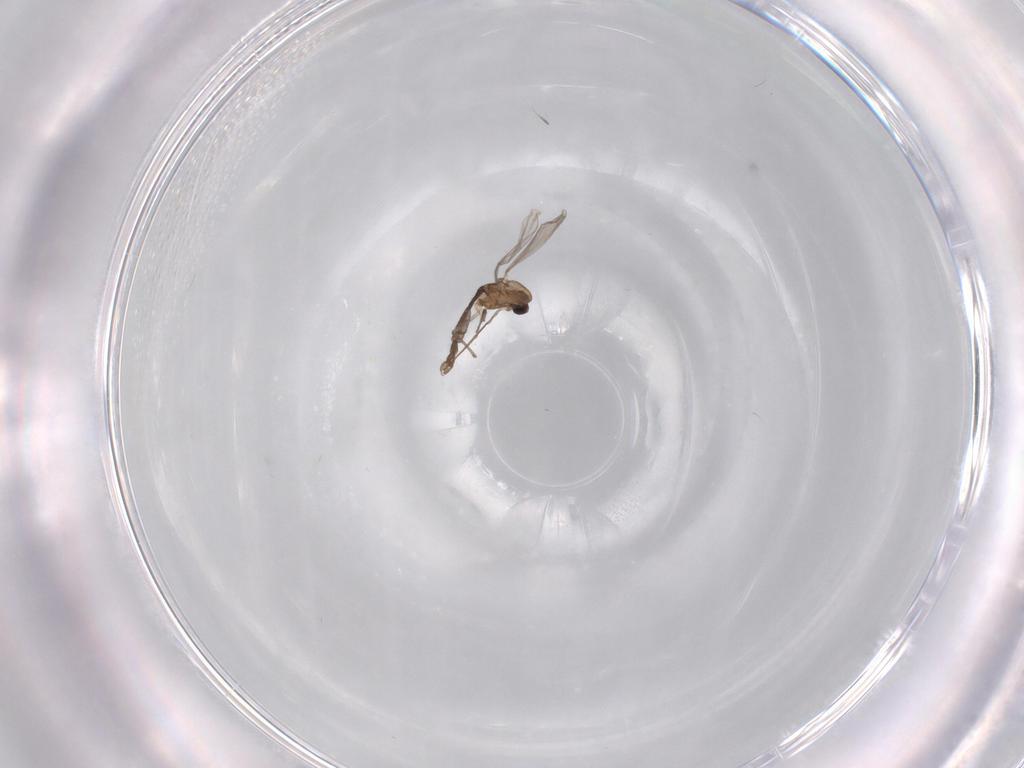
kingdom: Animalia
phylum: Arthropoda
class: Insecta
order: Diptera
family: Chironomidae
